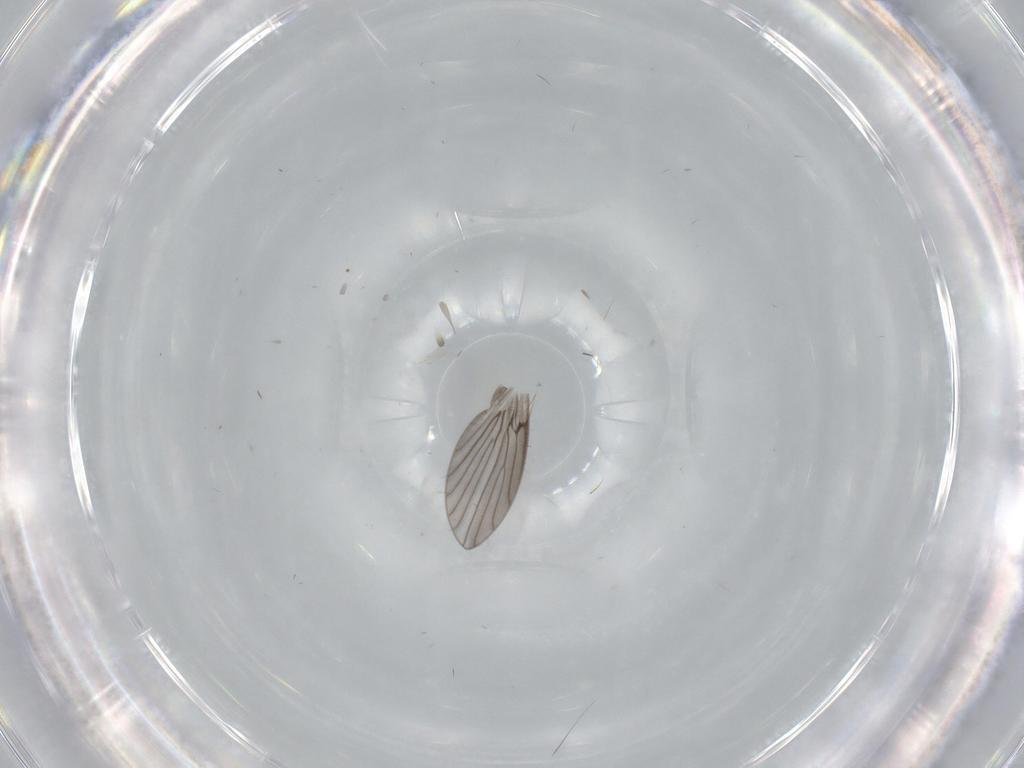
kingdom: Animalia
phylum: Arthropoda
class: Insecta
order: Diptera
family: Psychodidae
